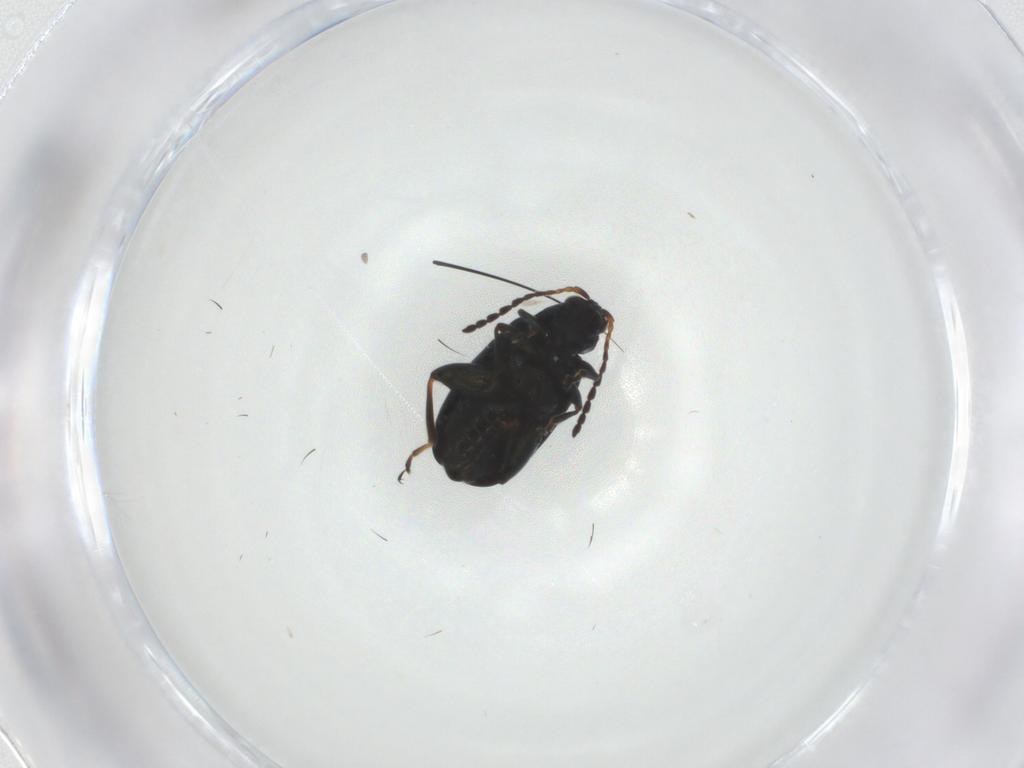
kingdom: Animalia
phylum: Arthropoda
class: Insecta
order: Coleoptera
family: Chrysomelidae
